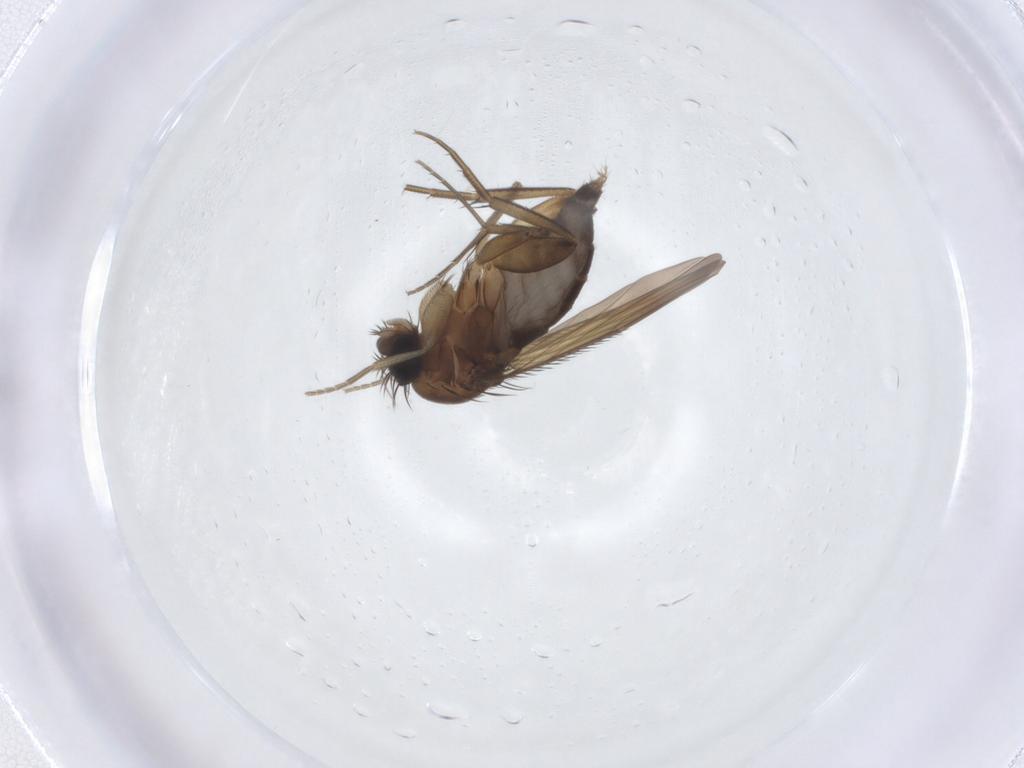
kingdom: Animalia
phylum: Arthropoda
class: Insecta
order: Diptera
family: Phoridae
